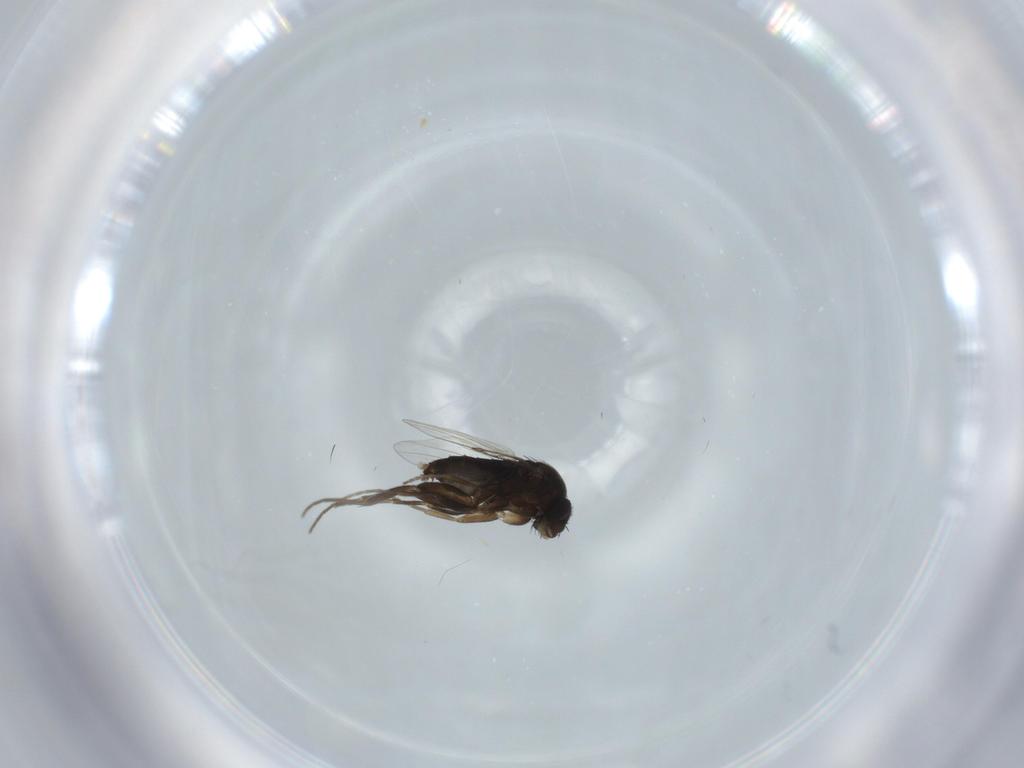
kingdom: Animalia
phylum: Arthropoda
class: Insecta
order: Diptera
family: Phoridae
